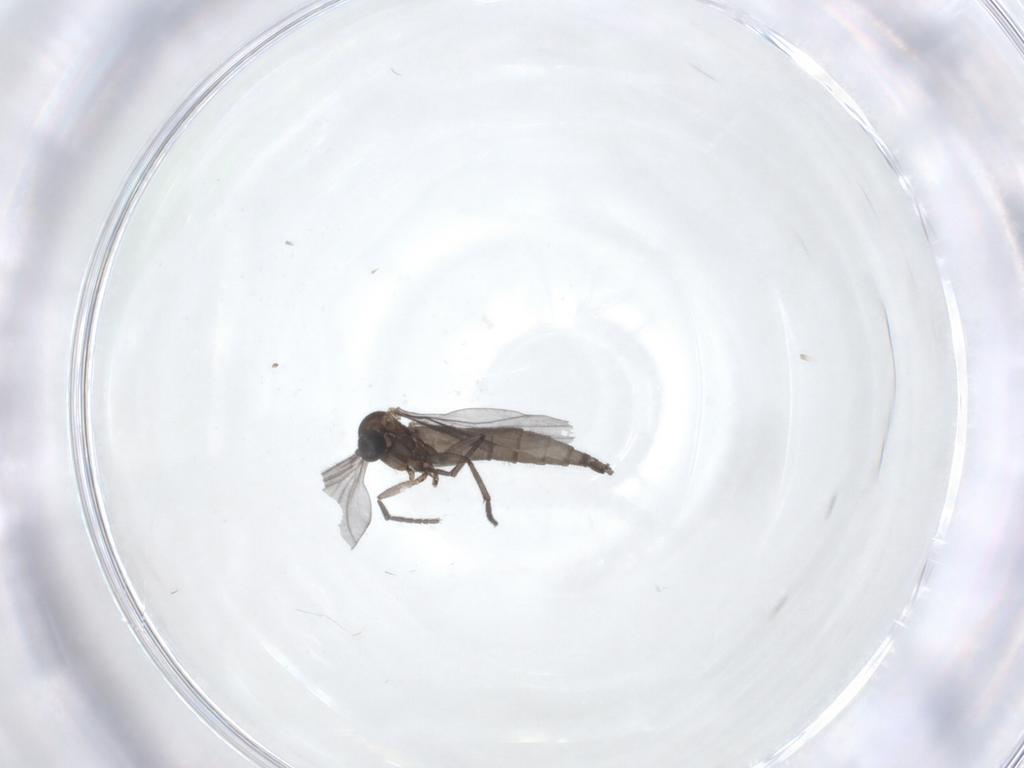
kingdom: Animalia
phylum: Arthropoda
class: Insecta
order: Diptera
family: Sciaridae
